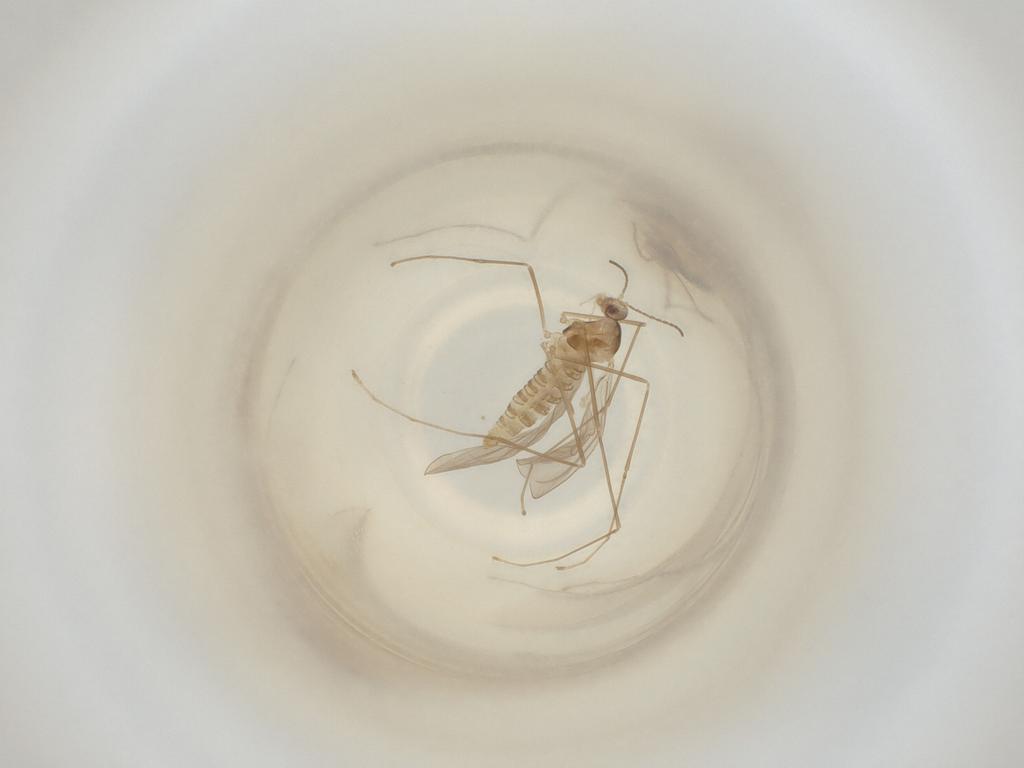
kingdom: Animalia
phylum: Arthropoda
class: Insecta
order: Diptera
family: Cecidomyiidae
